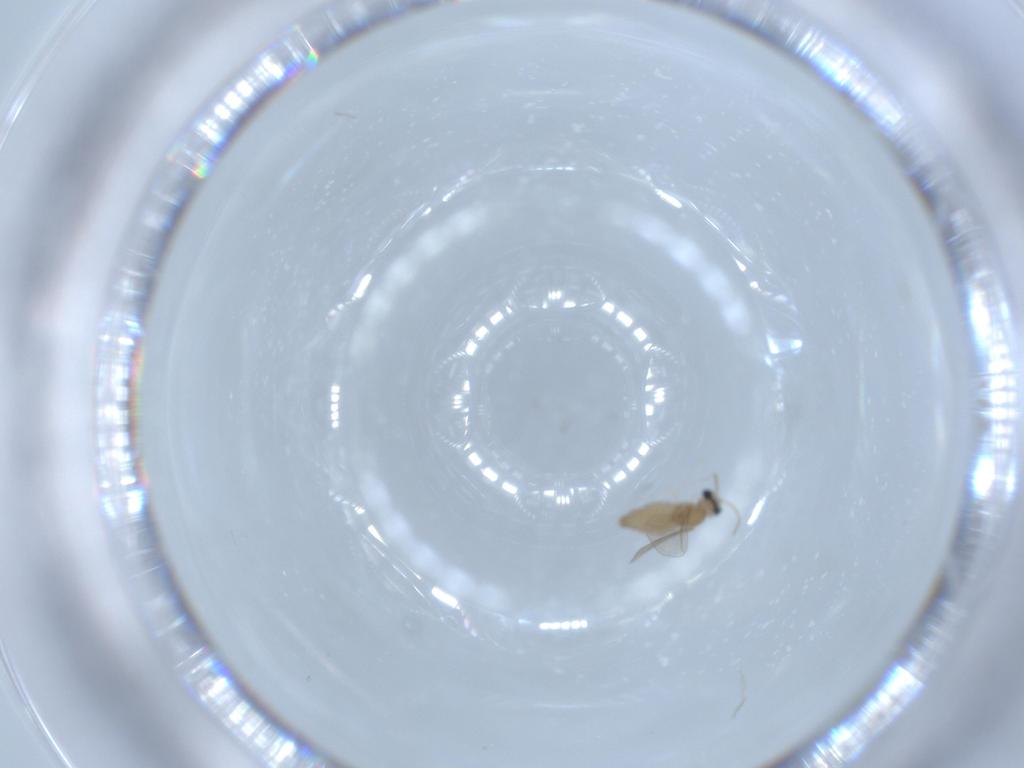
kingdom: Animalia
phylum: Arthropoda
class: Insecta
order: Diptera
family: Cecidomyiidae
